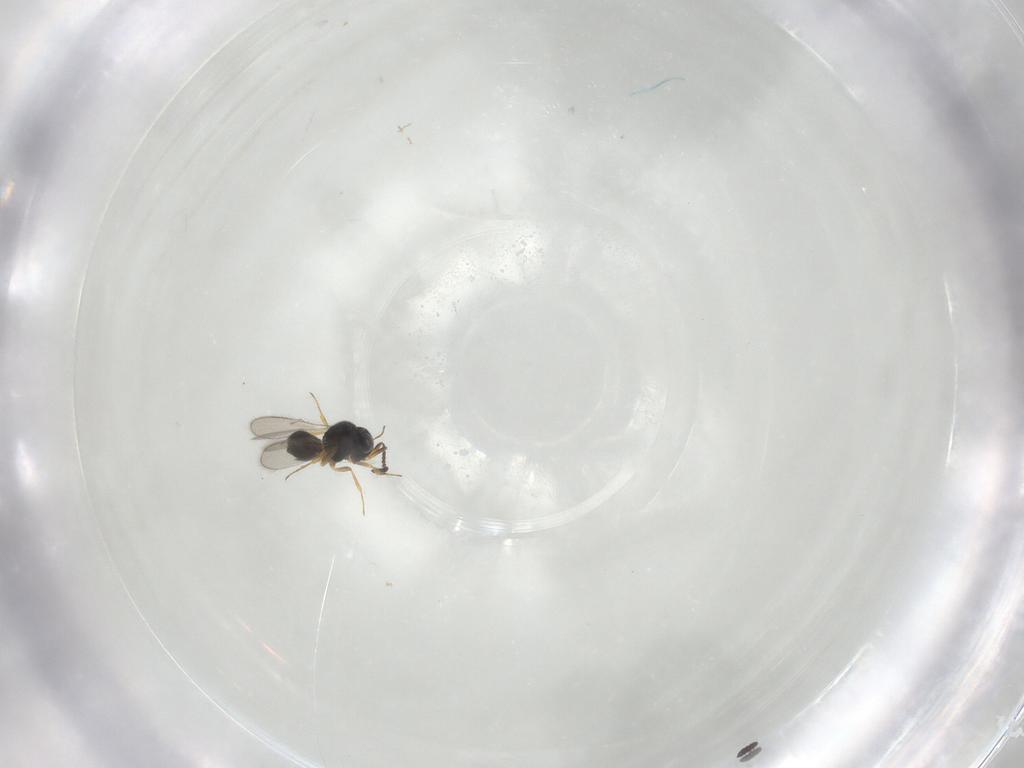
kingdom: Animalia
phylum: Arthropoda
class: Insecta
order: Hymenoptera
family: Scelionidae
